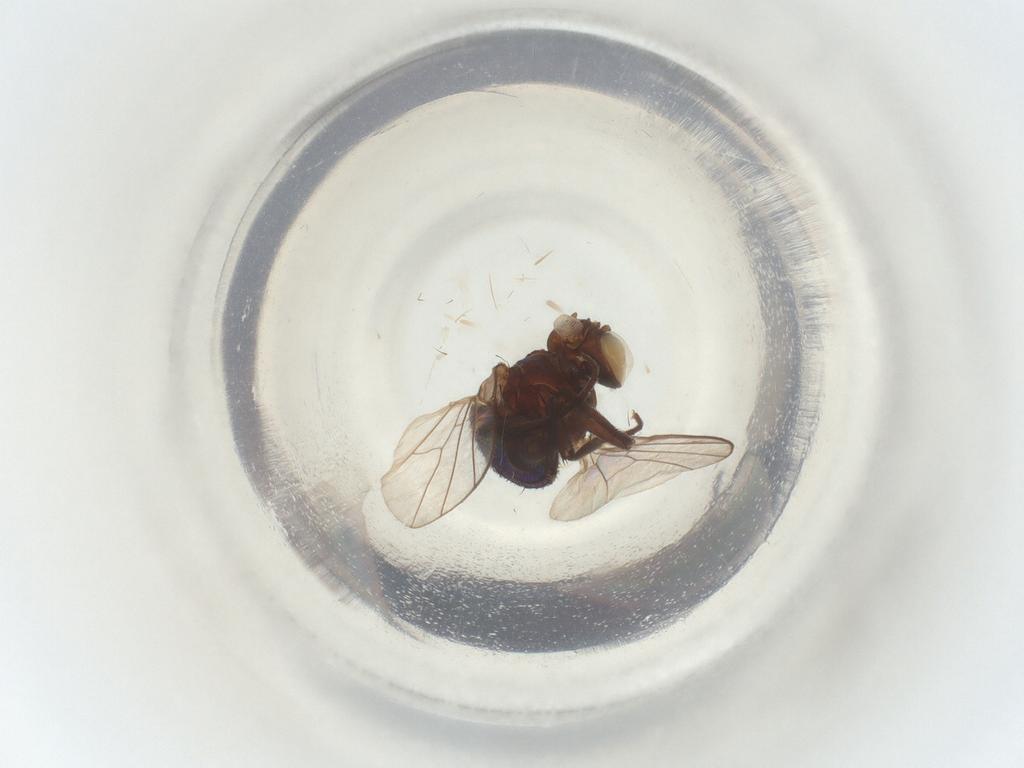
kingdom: Animalia
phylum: Arthropoda
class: Insecta
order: Diptera
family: Agromyzidae
